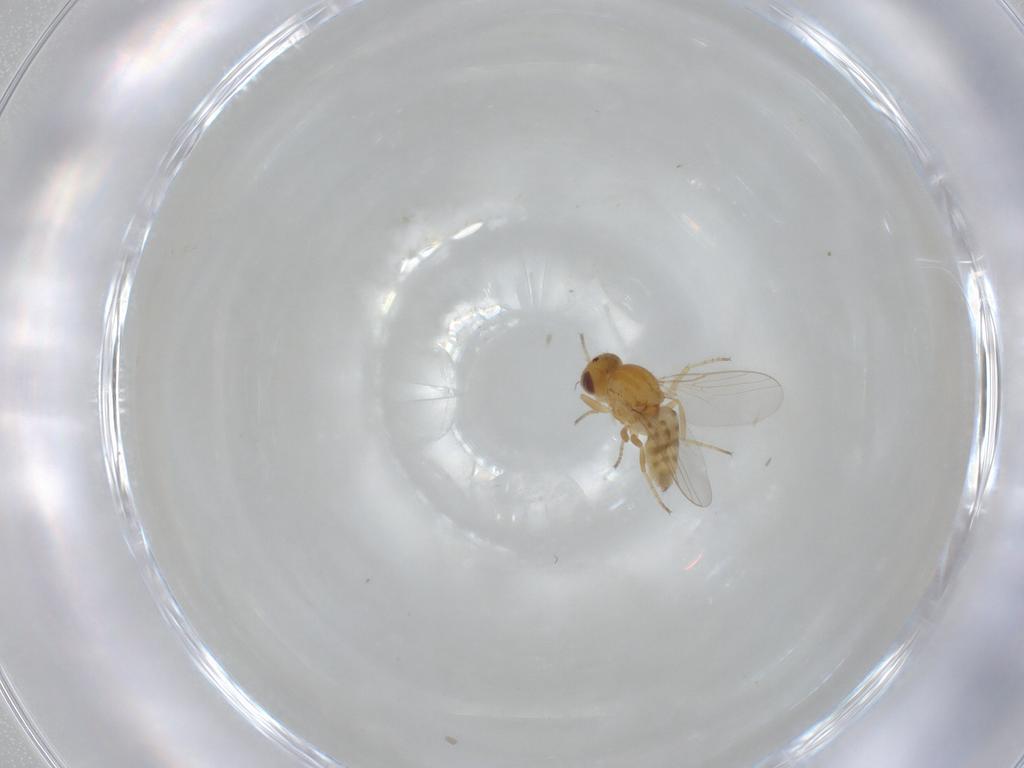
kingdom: Animalia
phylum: Arthropoda
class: Insecta
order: Diptera
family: Chloropidae
